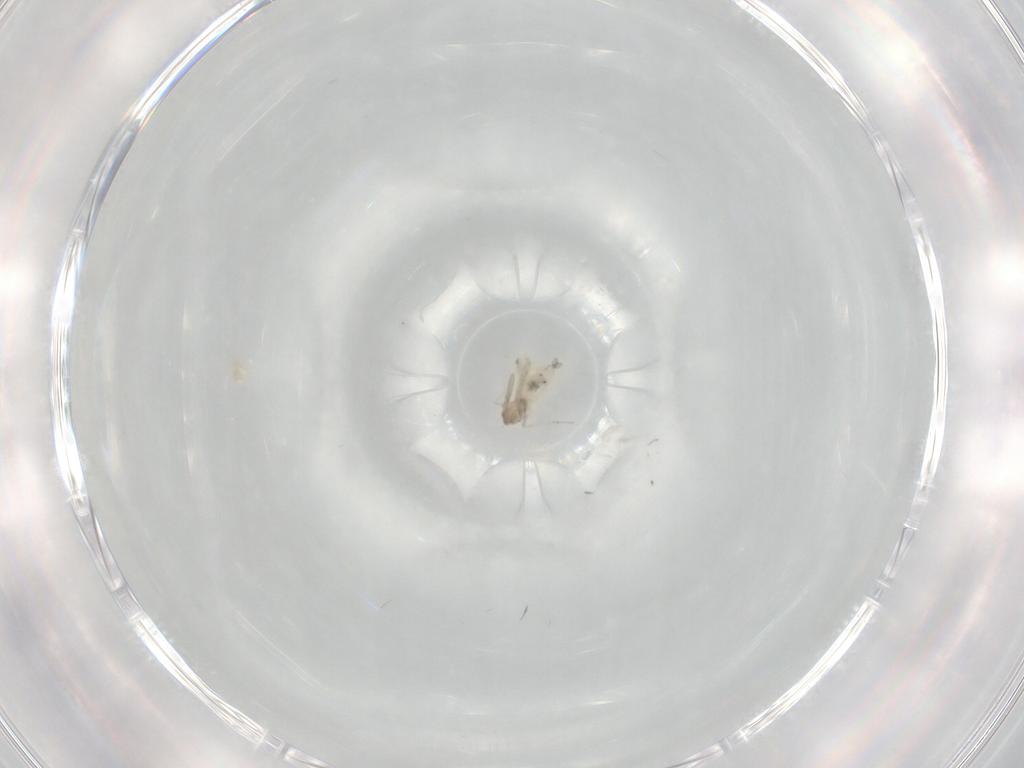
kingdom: Animalia
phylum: Arthropoda
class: Insecta
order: Diptera
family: Cecidomyiidae
